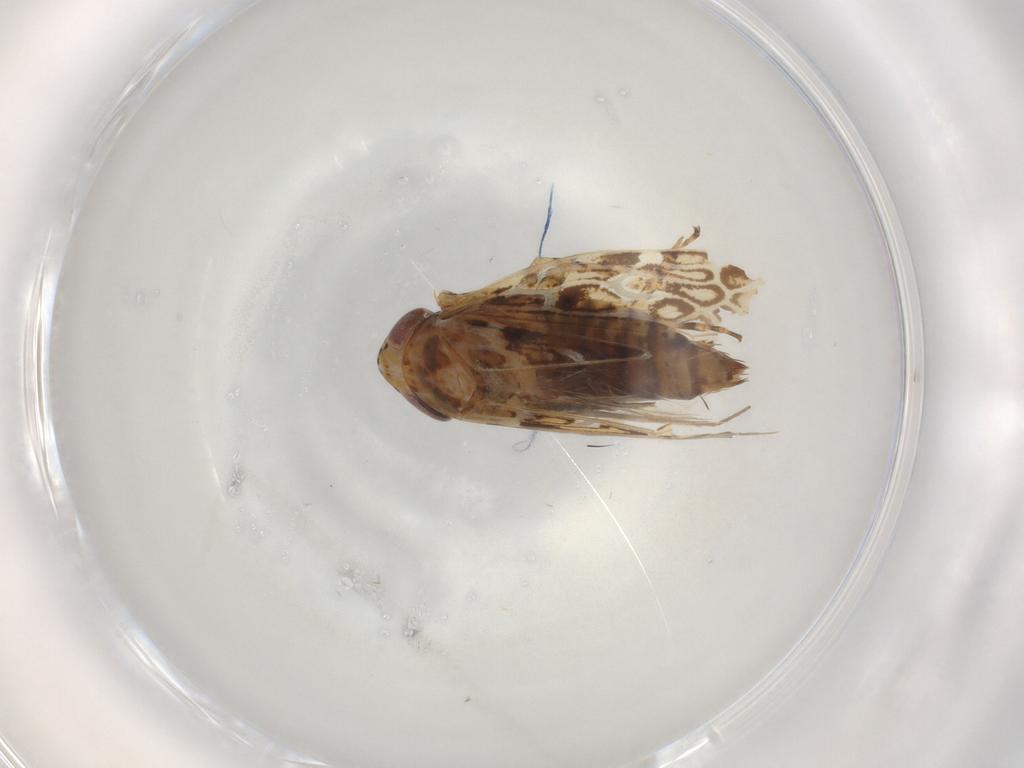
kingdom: Animalia
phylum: Arthropoda
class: Insecta
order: Hemiptera
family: Cicadellidae
